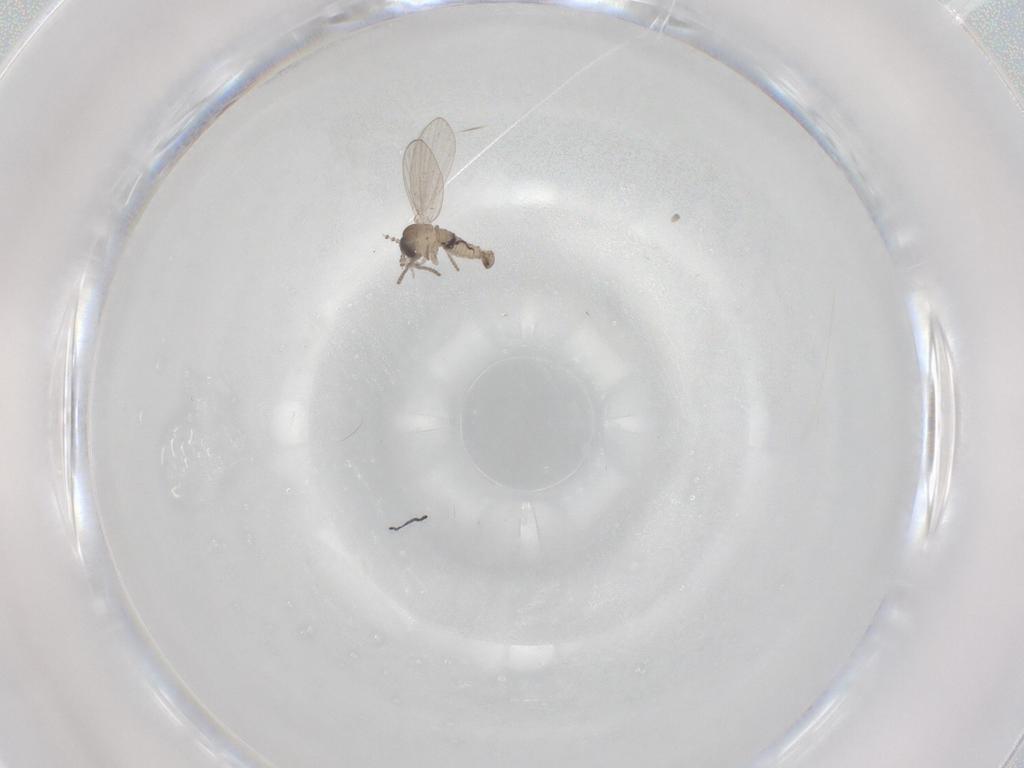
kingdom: Animalia
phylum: Arthropoda
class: Insecta
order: Diptera
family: Psychodidae
